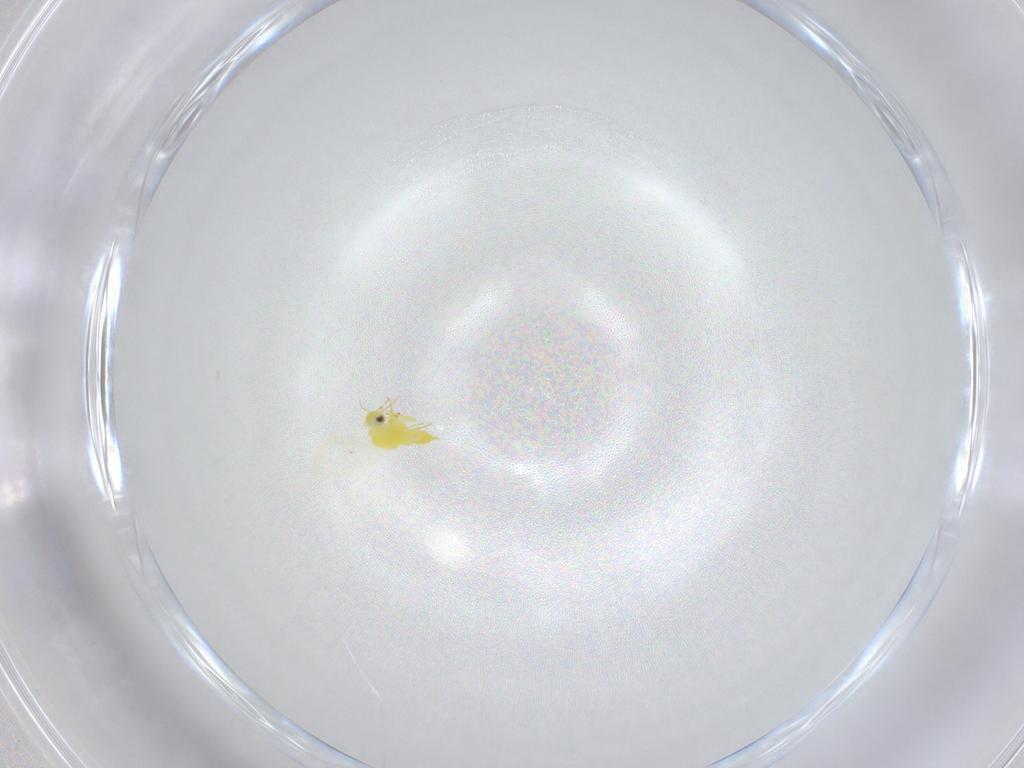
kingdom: Animalia
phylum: Arthropoda
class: Insecta
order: Hemiptera
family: Aleyrodidae
